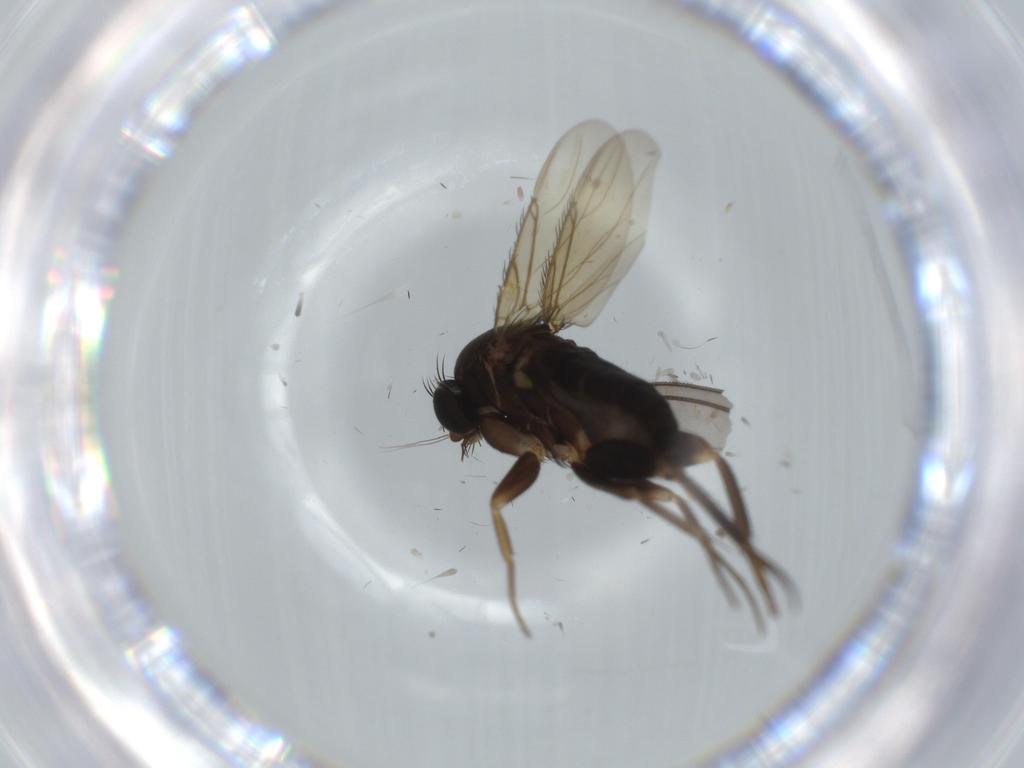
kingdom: Animalia
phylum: Arthropoda
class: Insecta
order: Diptera
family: Sciaridae
